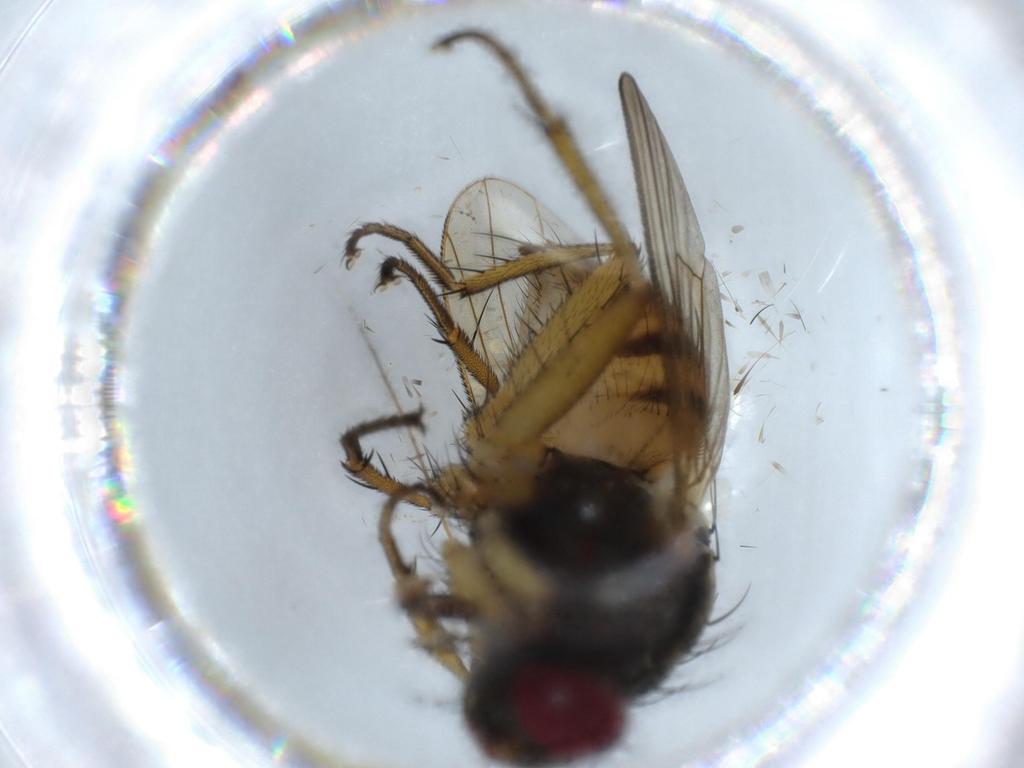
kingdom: Animalia
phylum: Arthropoda
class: Insecta
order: Diptera
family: Muscidae
